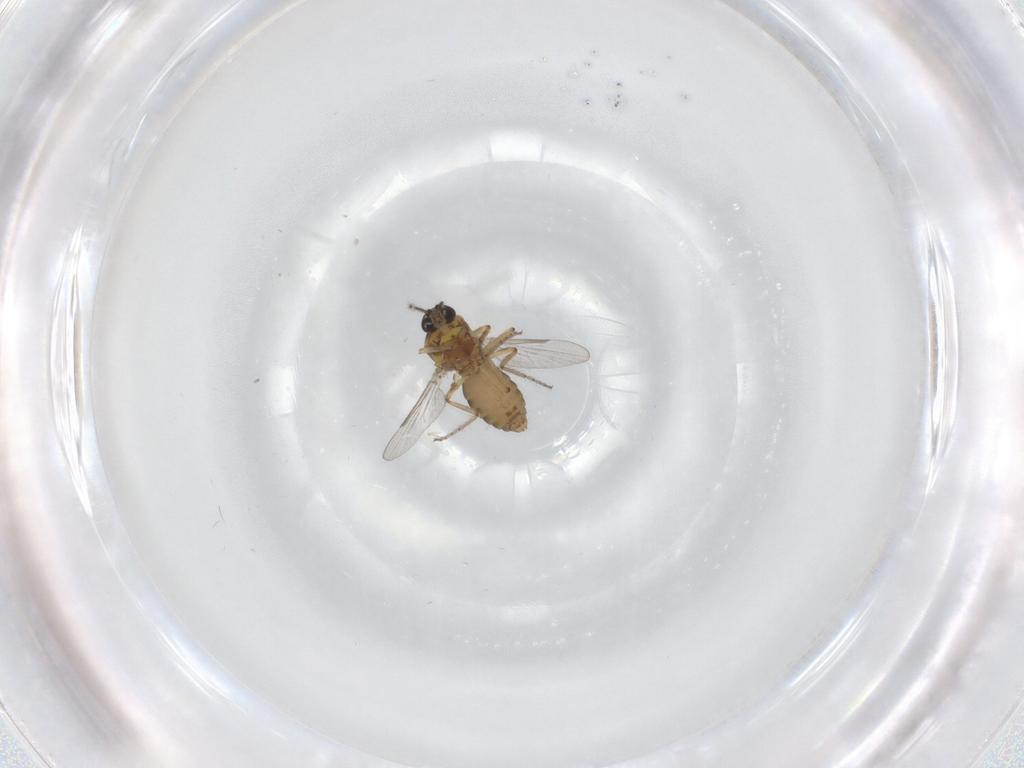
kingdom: Animalia
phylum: Arthropoda
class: Insecta
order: Diptera
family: Ceratopogonidae
